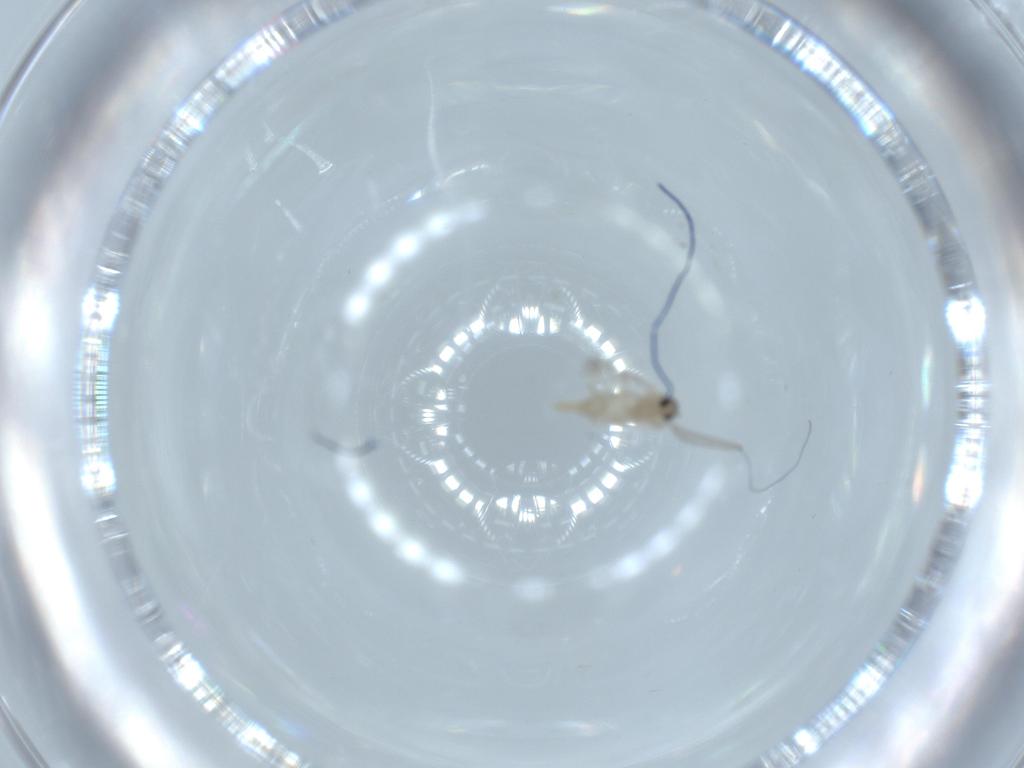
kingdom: Animalia
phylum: Arthropoda
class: Insecta
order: Diptera
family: Cecidomyiidae
